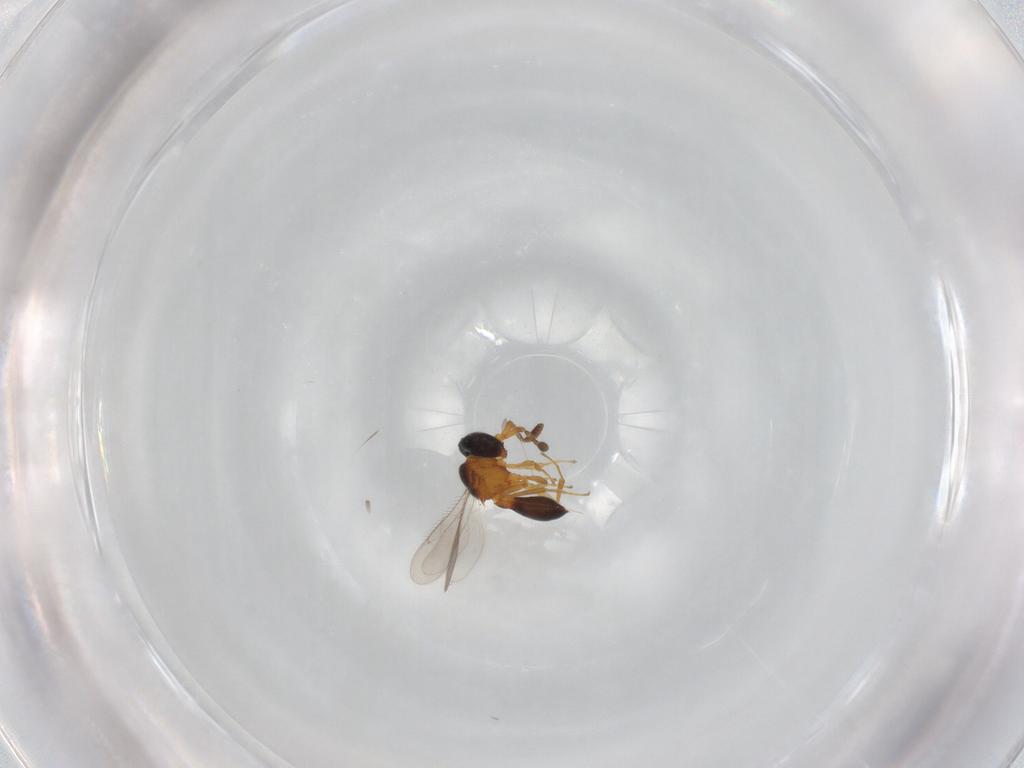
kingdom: Animalia
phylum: Arthropoda
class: Insecta
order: Hymenoptera
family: Scelionidae
